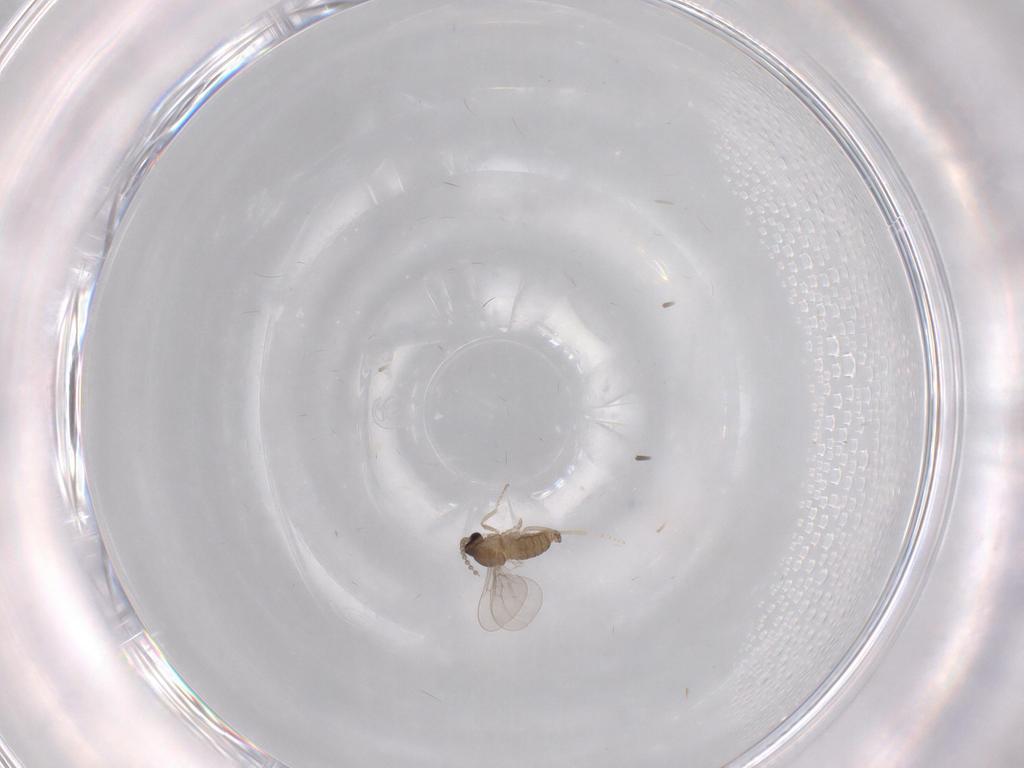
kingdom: Animalia
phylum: Arthropoda
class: Insecta
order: Diptera
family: Cecidomyiidae
